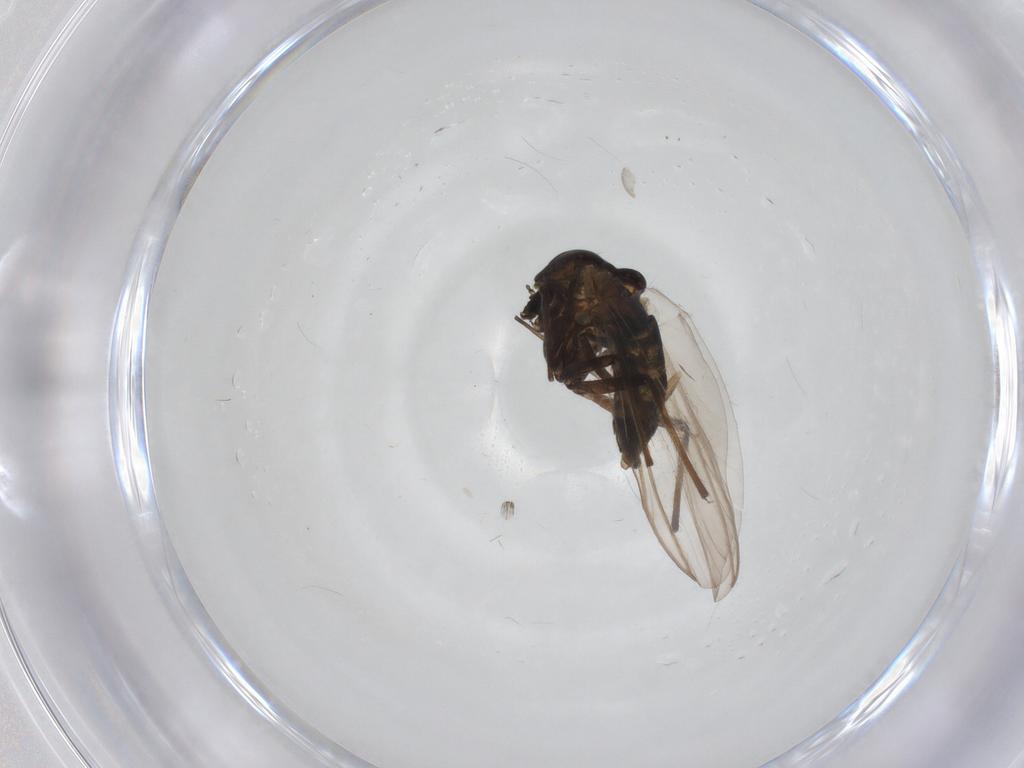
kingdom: Animalia
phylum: Arthropoda
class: Insecta
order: Diptera
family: Chironomidae
